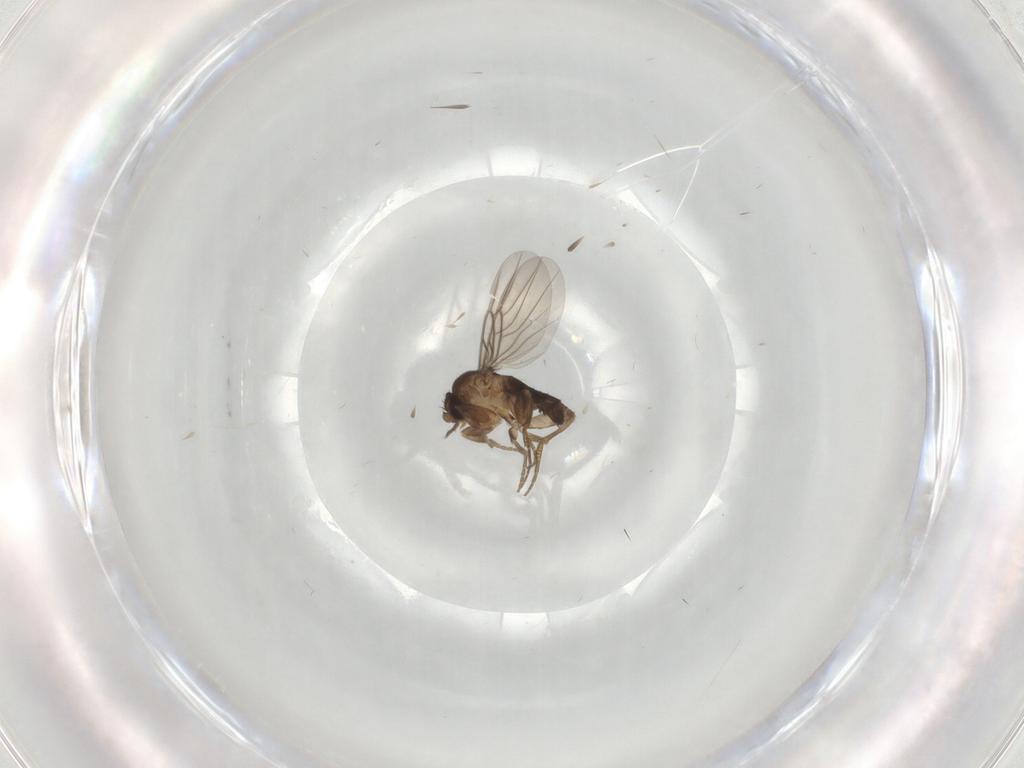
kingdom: Animalia
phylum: Arthropoda
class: Insecta
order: Diptera
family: Phoridae
